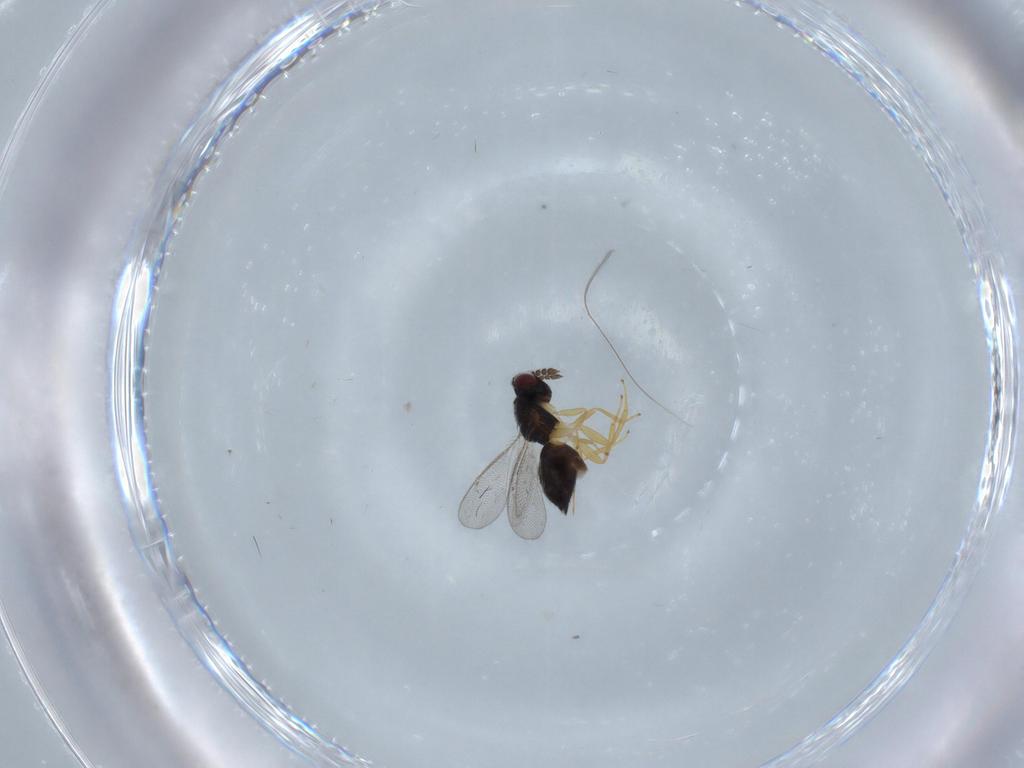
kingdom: Animalia
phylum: Arthropoda
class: Insecta
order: Hymenoptera
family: Eulophidae
